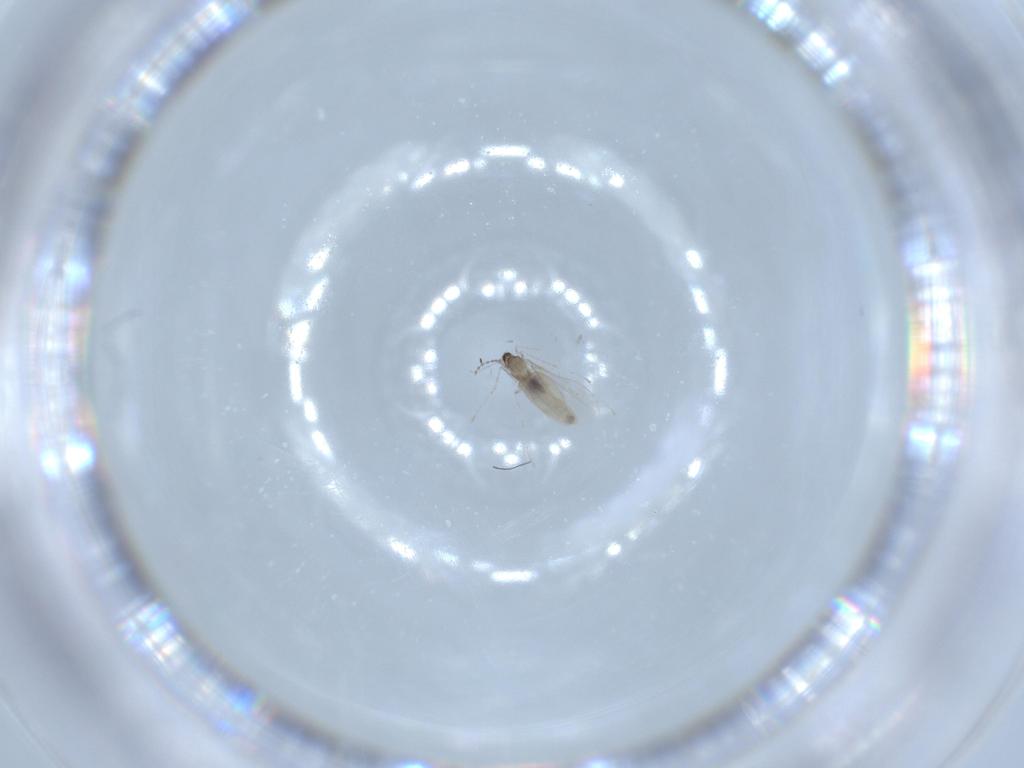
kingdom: Animalia
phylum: Arthropoda
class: Insecta
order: Diptera
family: Cecidomyiidae
